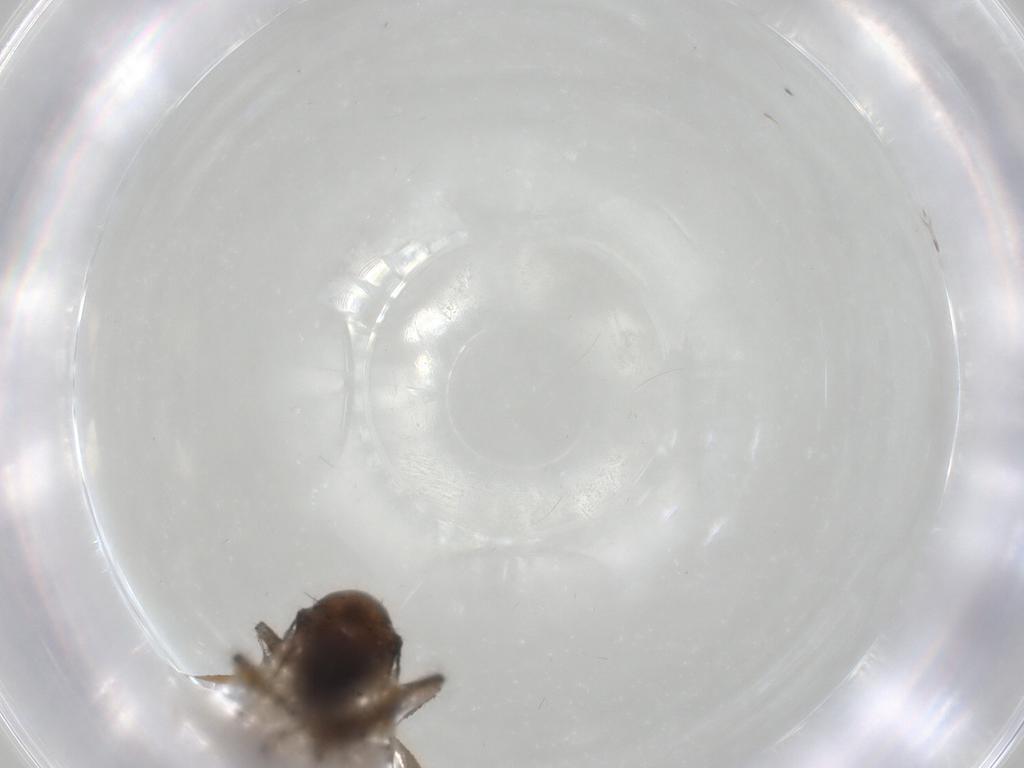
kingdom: Animalia
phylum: Arthropoda
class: Insecta
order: Diptera
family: Hybotidae
